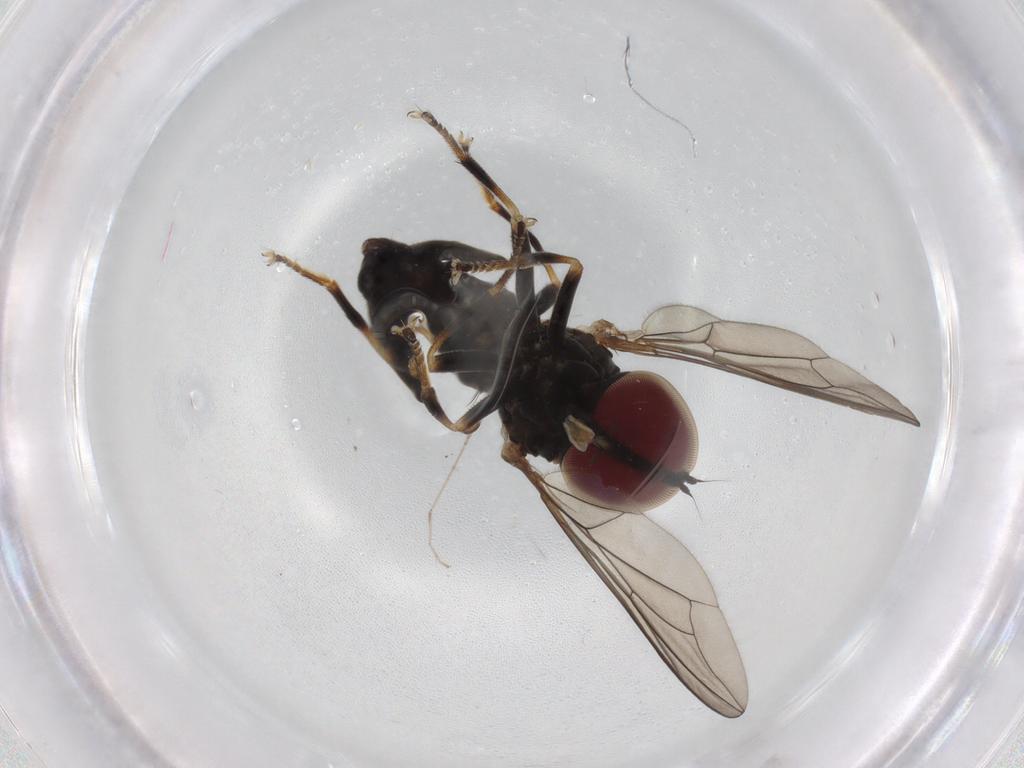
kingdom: Animalia
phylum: Arthropoda
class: Insecta
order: Diptera
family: Pipunculidae
